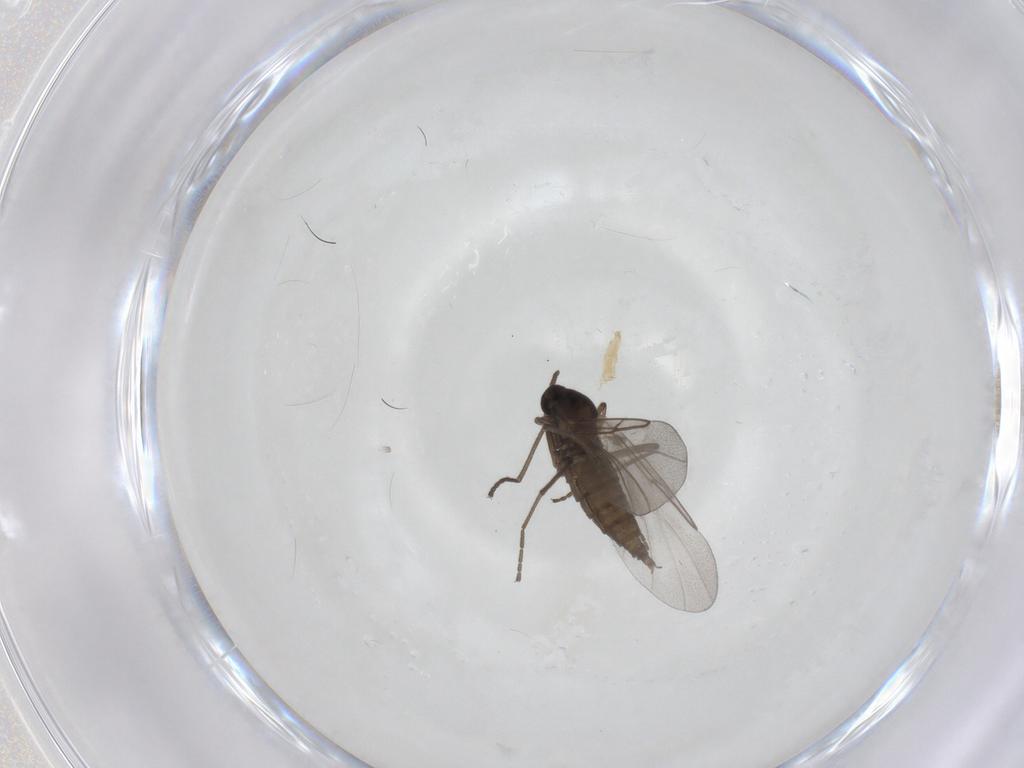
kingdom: Animalia
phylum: Arthropoda
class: Insecta
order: Diptera
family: Cecidomyiidae
